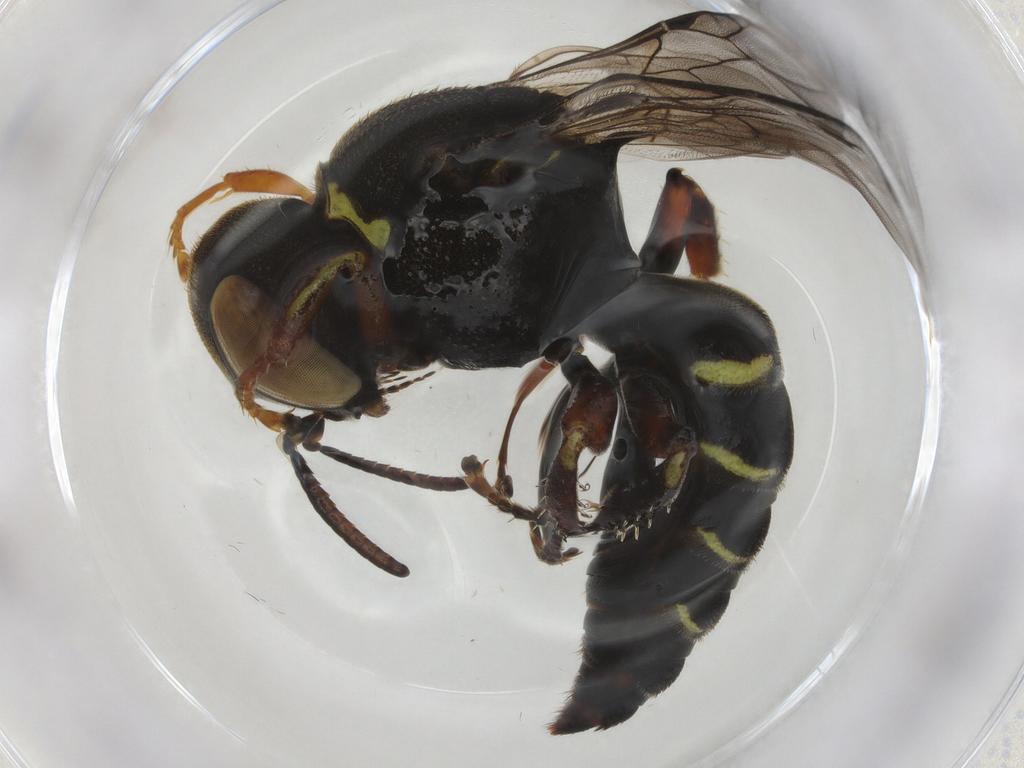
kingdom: Animalia
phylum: Arthropoda
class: Insecta
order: Hymenoptera
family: Crabronidae
